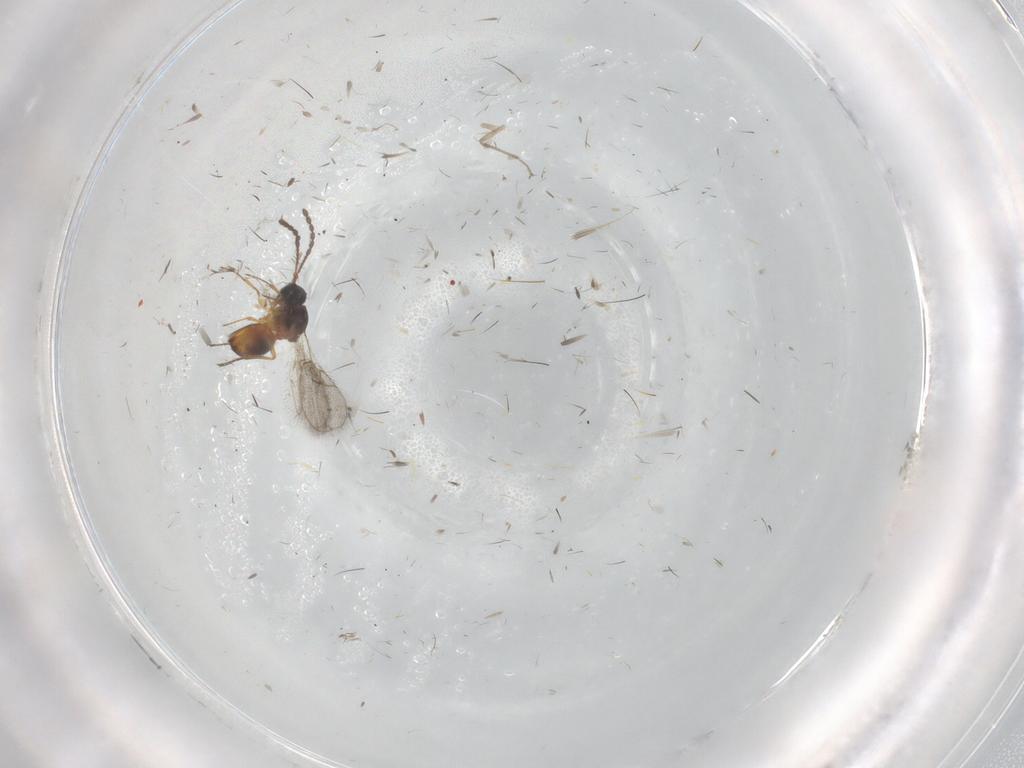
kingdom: Animalia
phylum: Arthropoda
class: Insecta
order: Hymenoptera
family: Figitidae
